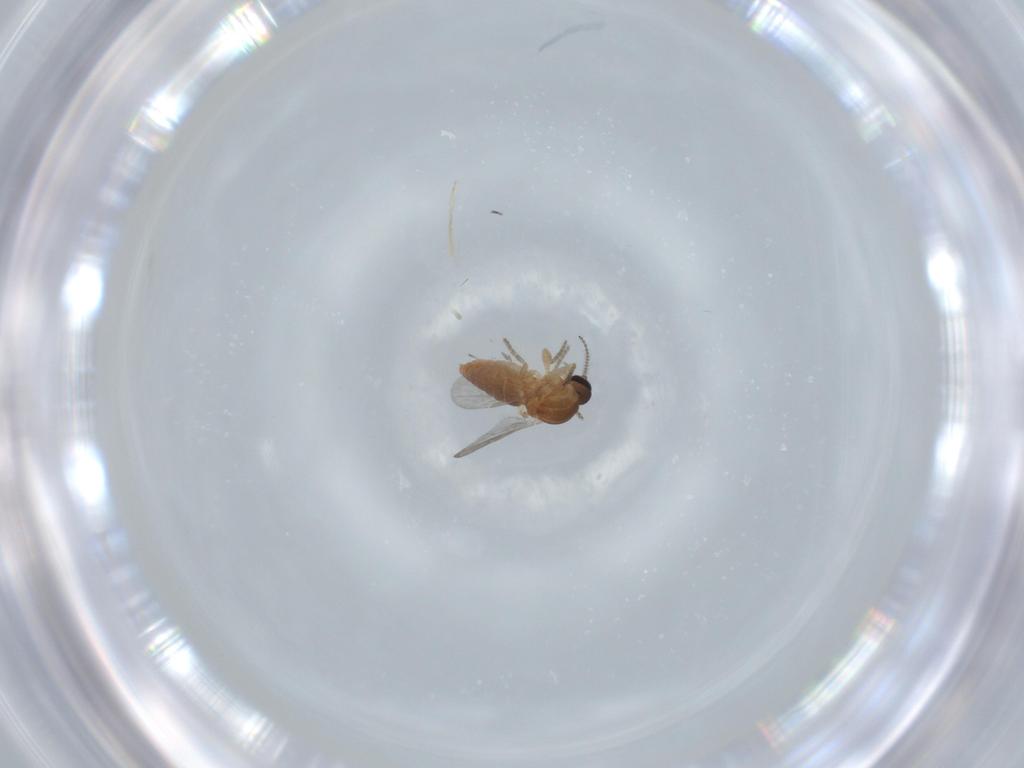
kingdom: Animalia
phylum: Arthropoda
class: Insecta
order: Diptera
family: Ceratopogonidae
